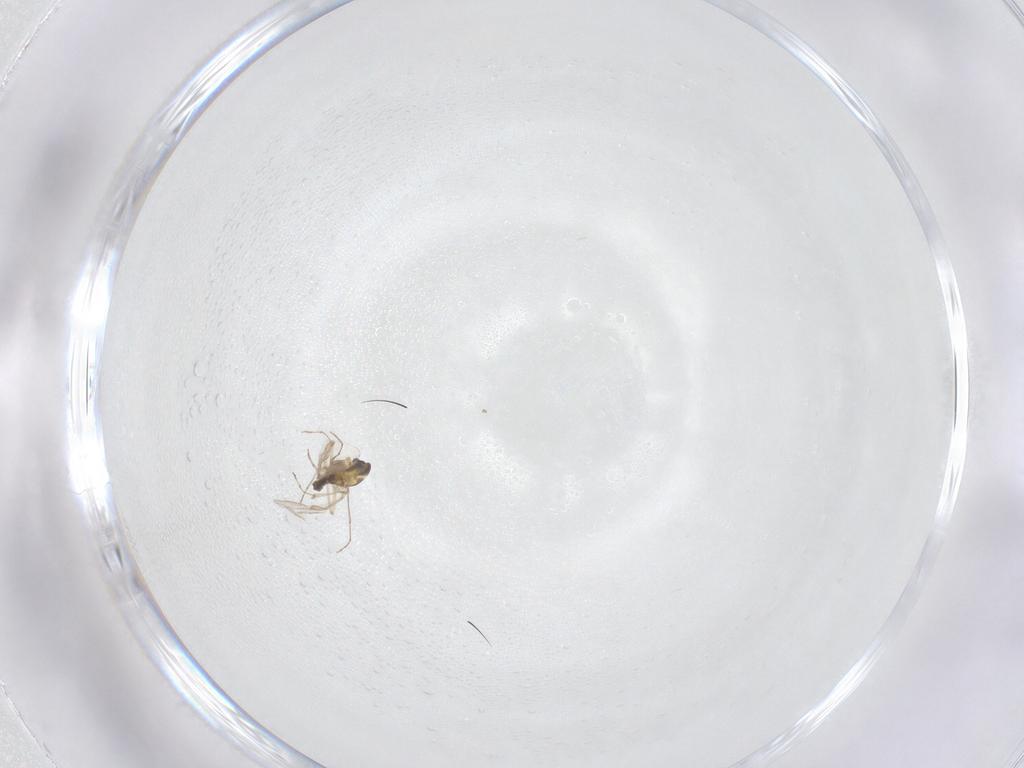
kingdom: Animalia
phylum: Arthropoda
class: Insecta
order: Diptera
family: Chironomidae
